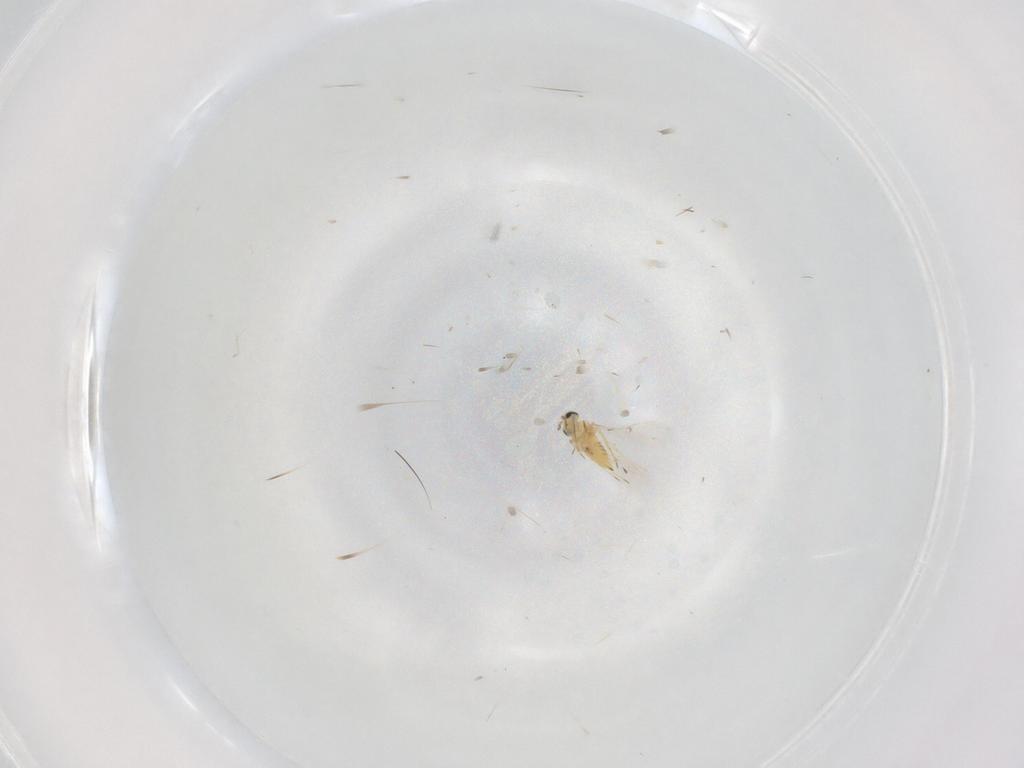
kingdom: Animalia
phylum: Arthropoda
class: Insecta
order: Hymenoptera
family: Trichogrammatidae
